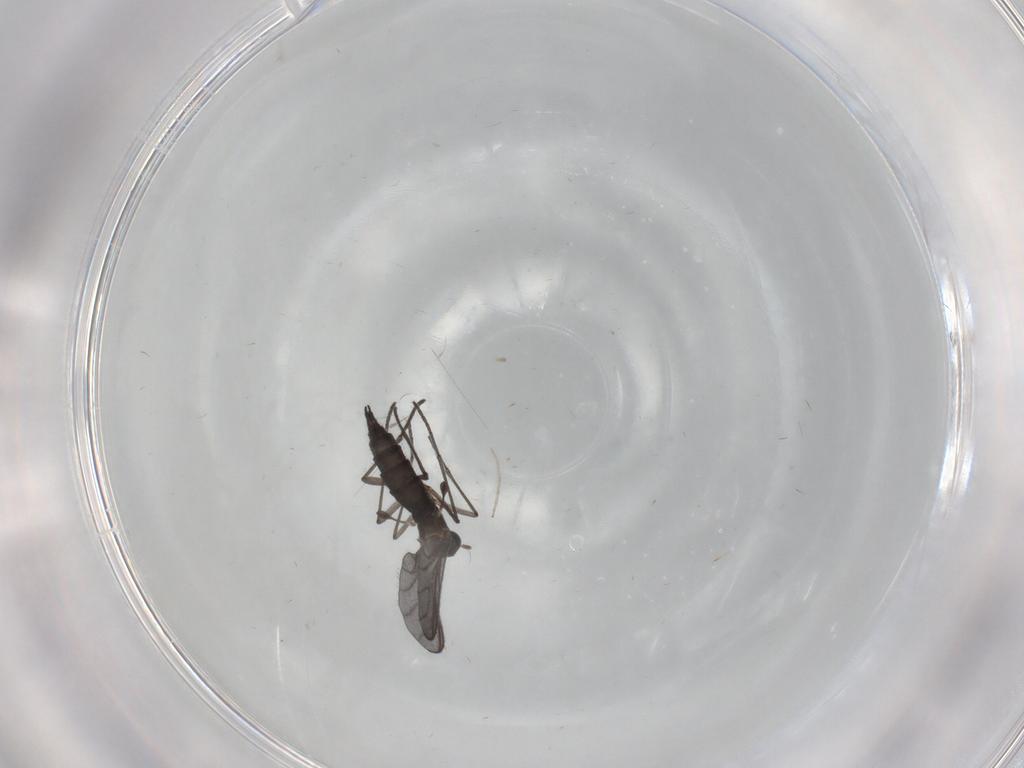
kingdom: Animalia
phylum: Arthropoda
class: Insecta
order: Diptera
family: Sciaridae
